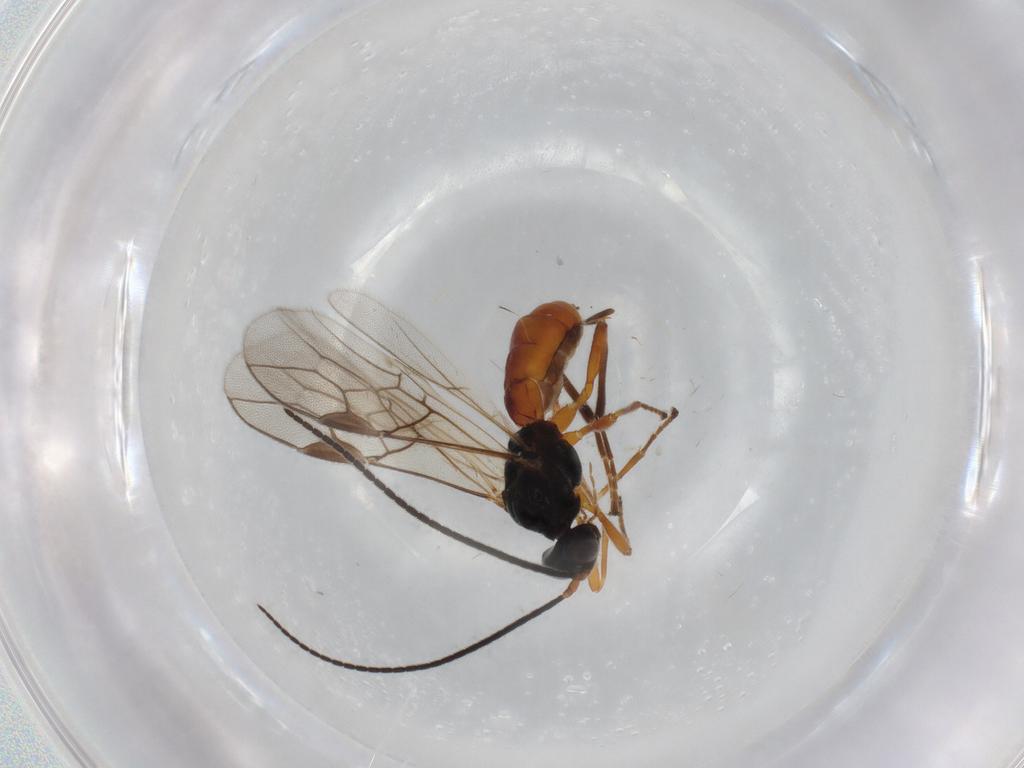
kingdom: Animalia
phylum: Arthropoda
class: Insecta
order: Hymenoptera
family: Braconidae
